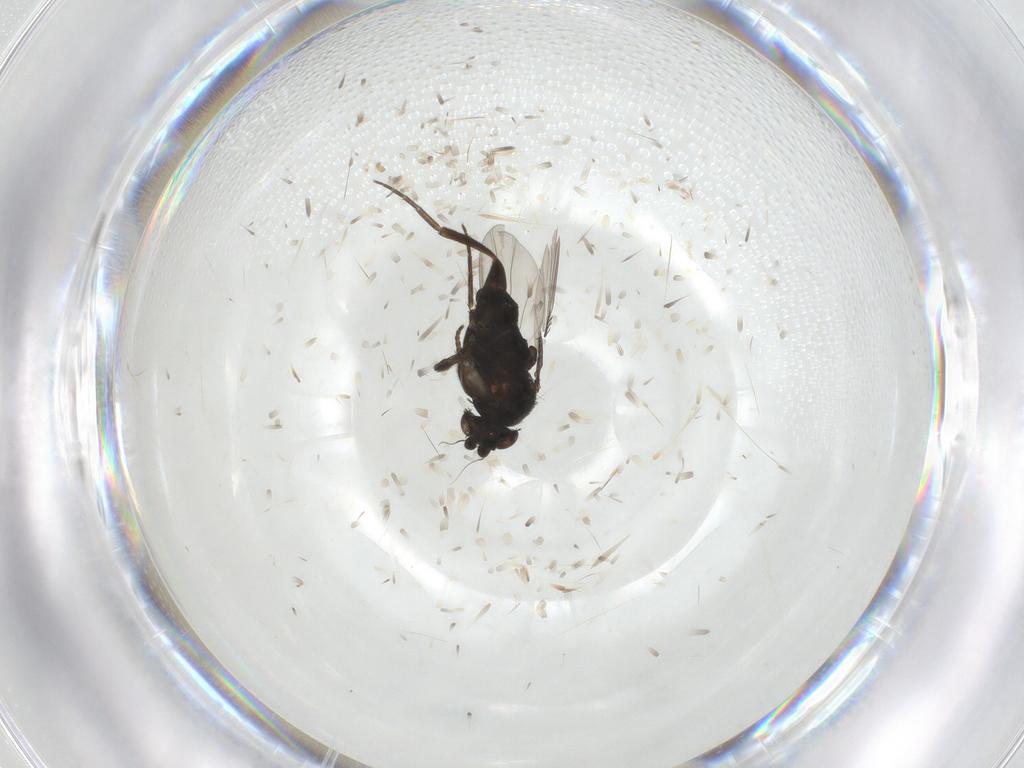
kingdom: Animalia
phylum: Arthropoda
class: Insecta
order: Diptera
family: Phoridae
